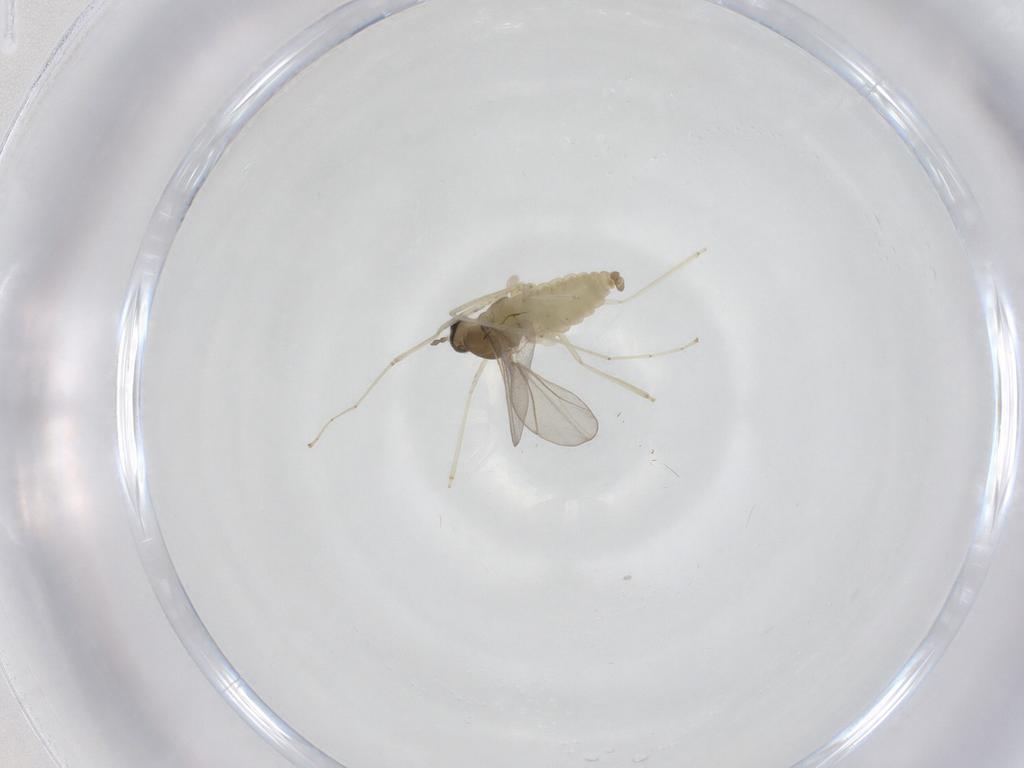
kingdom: Animalia
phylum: Arthropoda
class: Insecta
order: Diptera
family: Cecidomyiidae
